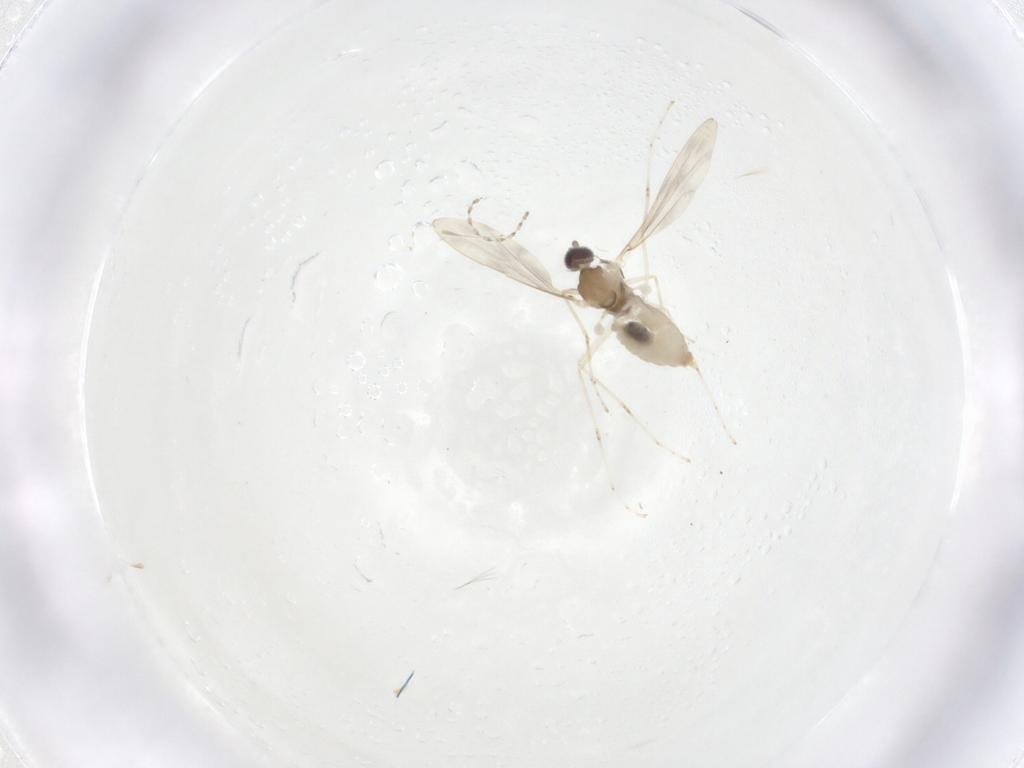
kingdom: Animalia
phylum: Arthropoda
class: Insecta
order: Diptera
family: Cecidomyiidae
